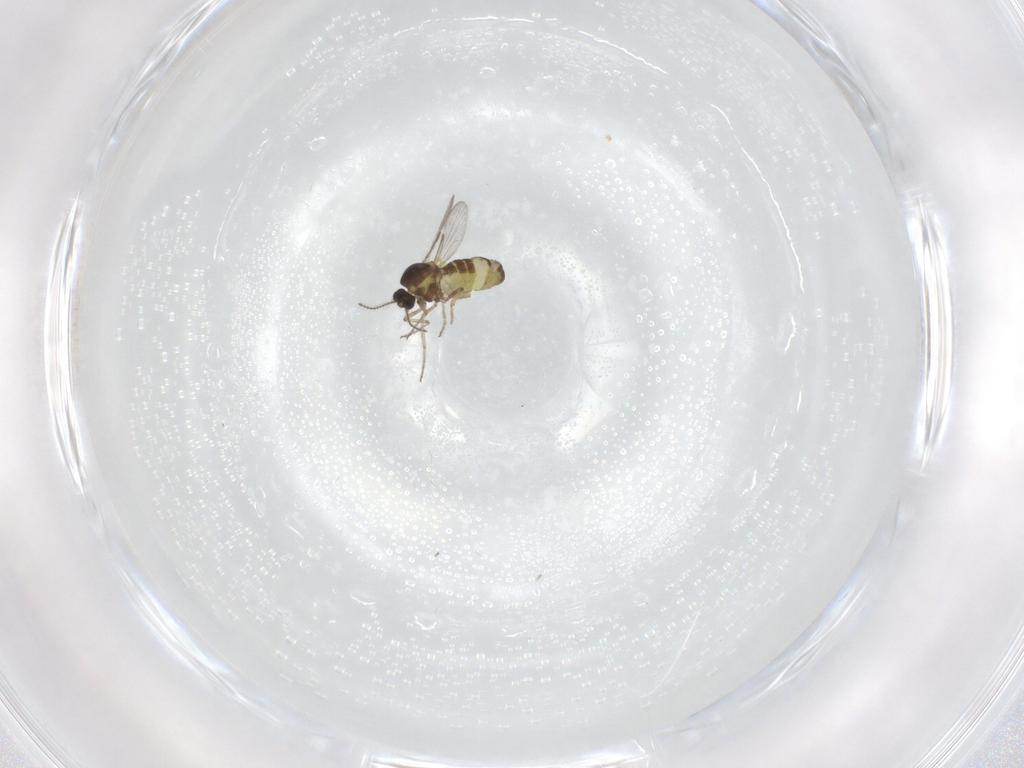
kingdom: Animalia
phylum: Arthropoda
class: Insecta
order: Diptera
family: Ceratopogonidae
